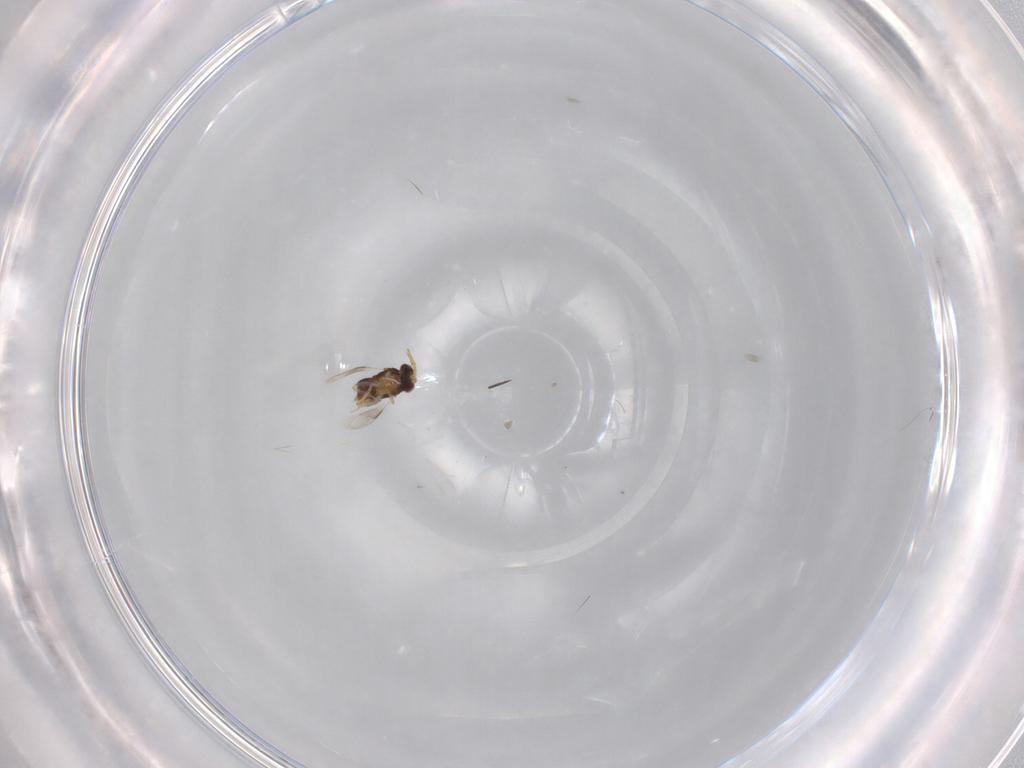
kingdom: Animalia
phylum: Arthropoda
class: Insecta
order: Hymenoptera
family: Aphelinidae
